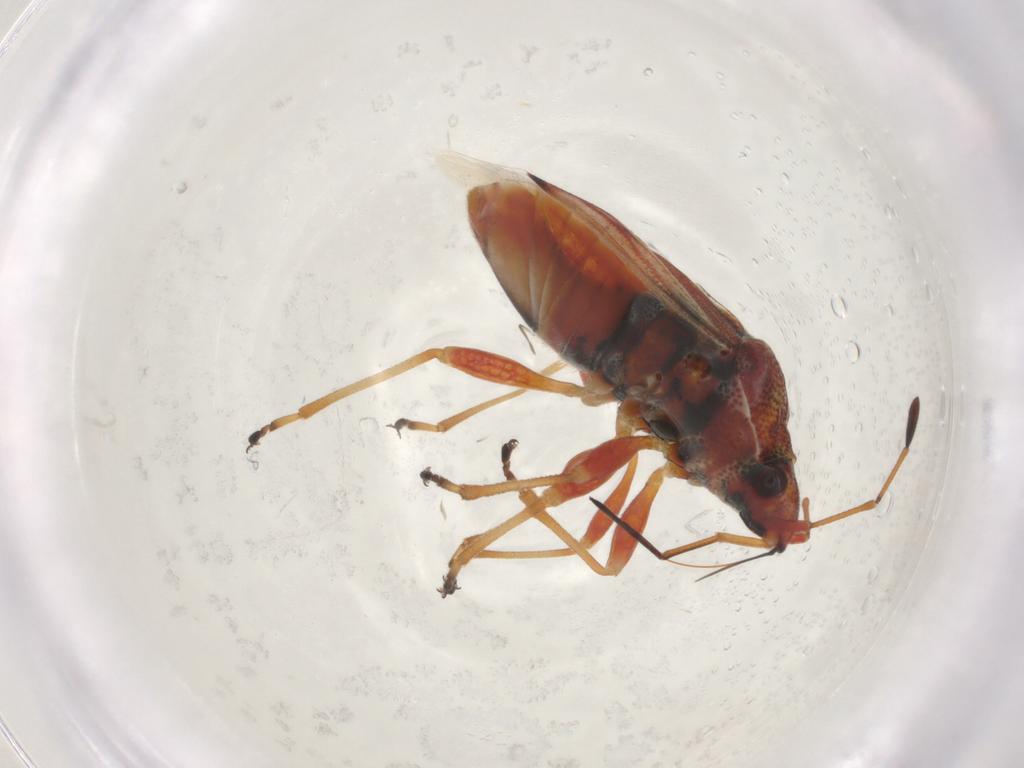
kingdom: Animalia
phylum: Arthropoda
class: Insecta
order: Hemiptera
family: Lygaeidae
